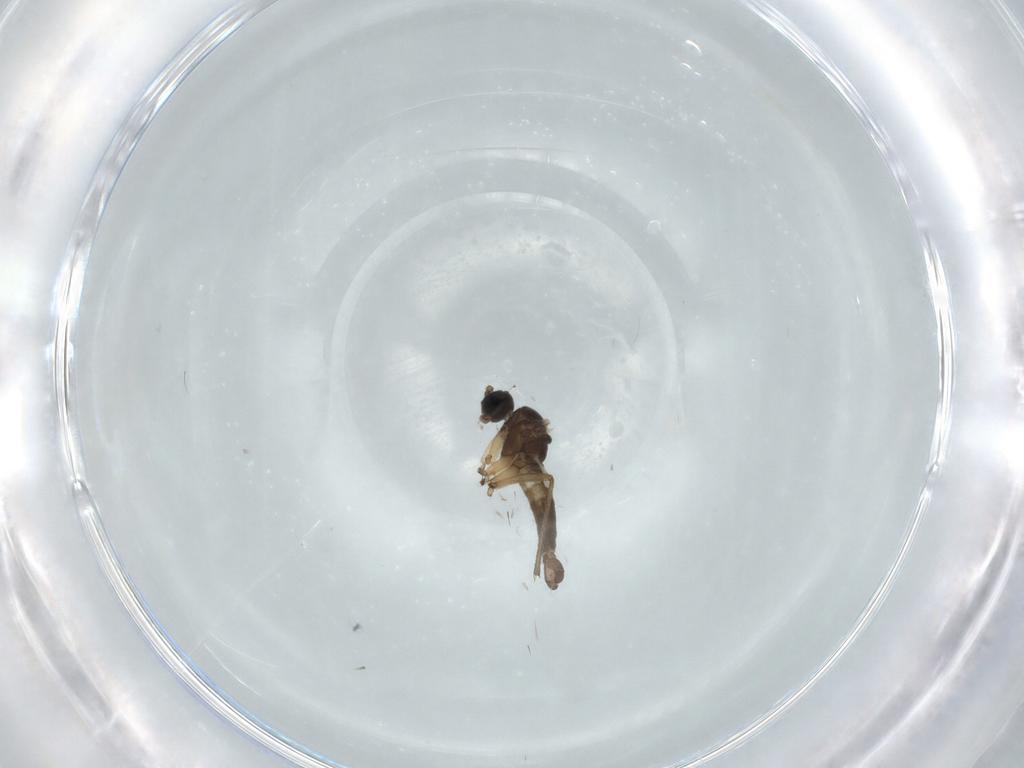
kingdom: Animalia
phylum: Arthropoda
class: Insecta
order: Diptera
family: Sciaridae
